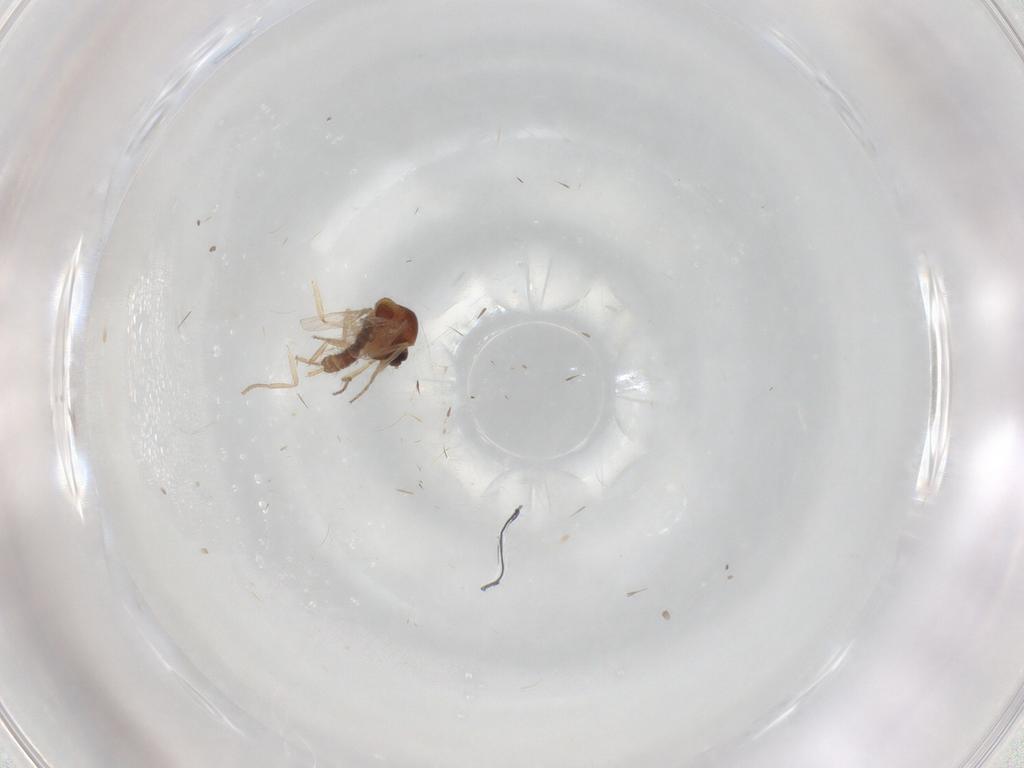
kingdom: Animalia
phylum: Arthropoda
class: Insecta
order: Diptera
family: Ceratopogonidae
